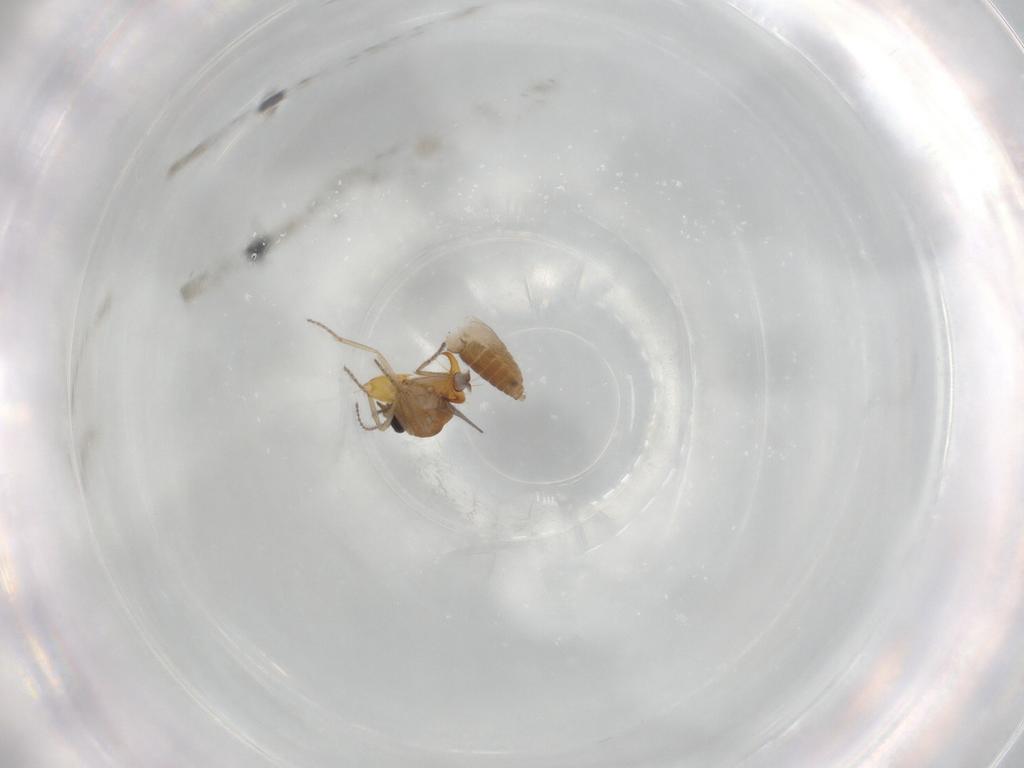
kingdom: Animalia
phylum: Arthropoda
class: Insecta
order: Diptera
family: Ceratopogonidae
